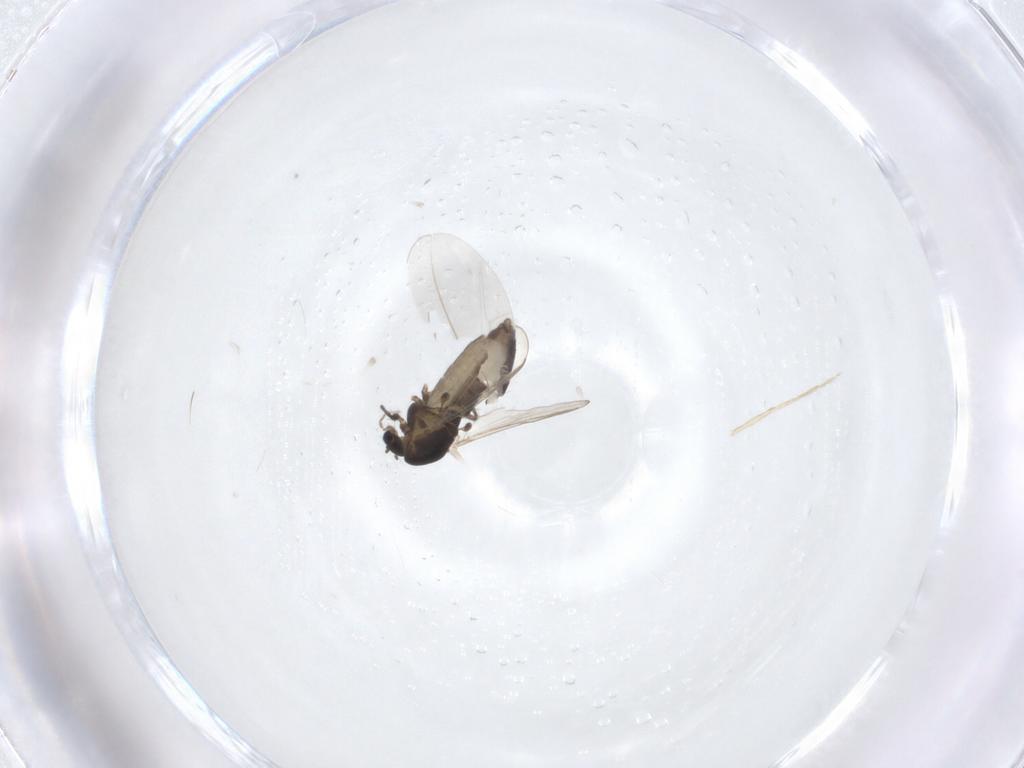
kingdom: Animalia
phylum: Arthropoda
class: Insecta
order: Diptera
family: Chironomidae
